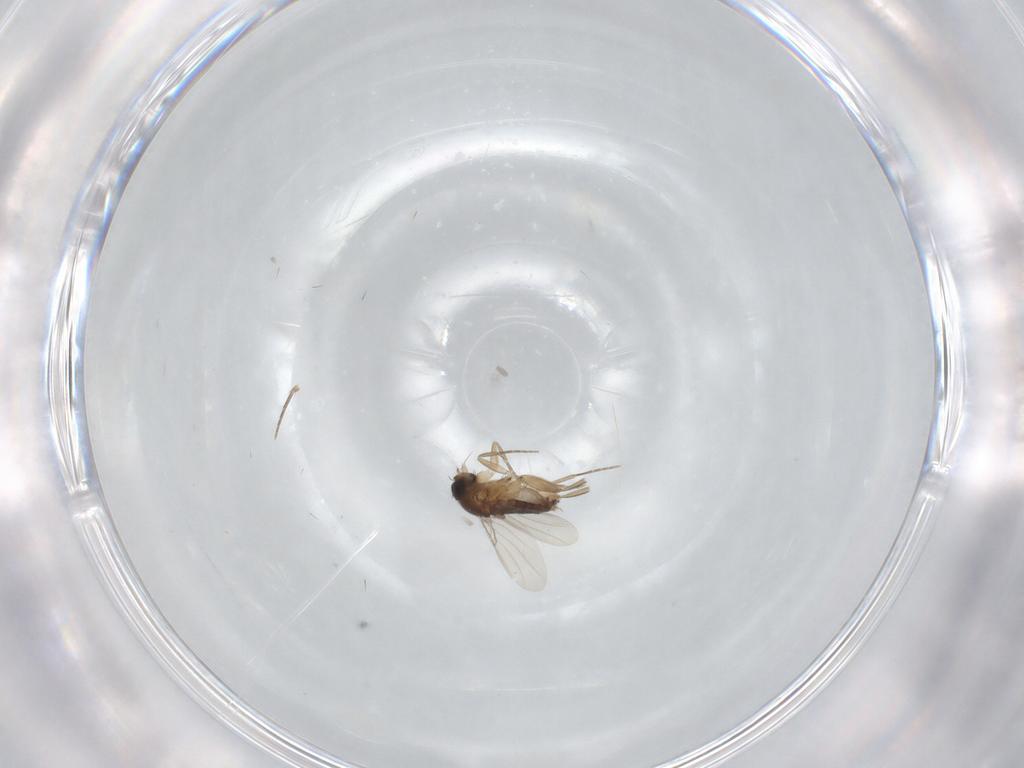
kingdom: Animalia
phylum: Arthropoda
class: Insecta
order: Diptera
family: Phoridae
